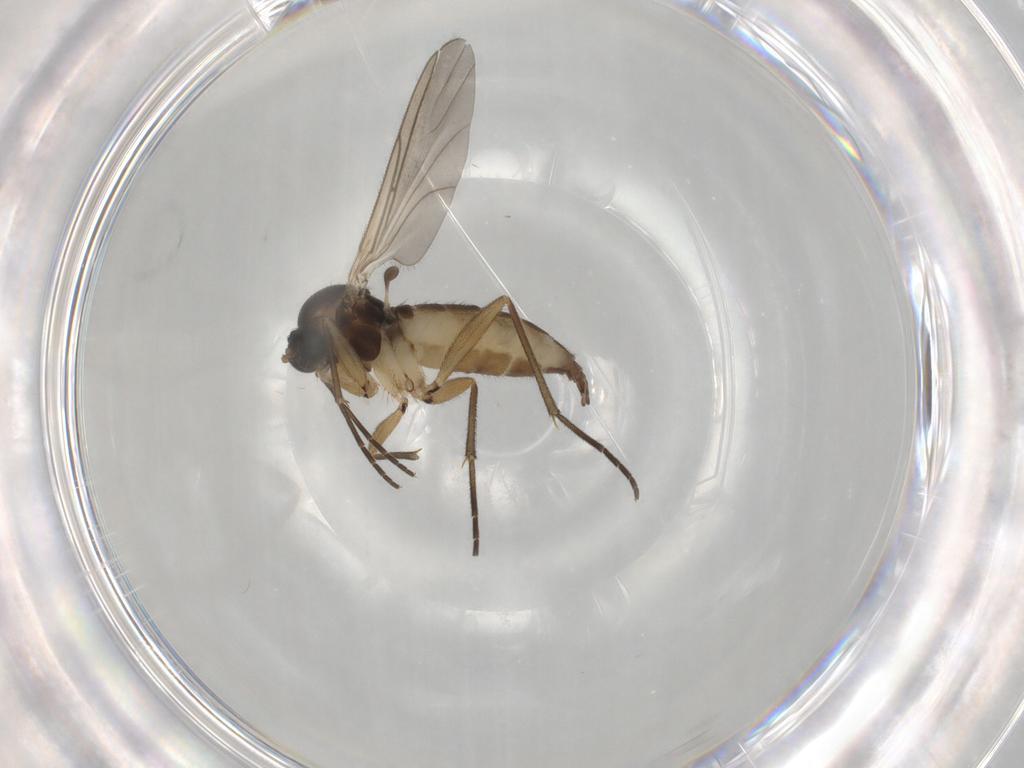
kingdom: Animalia
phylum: Arthropoda
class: Insecta
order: Diptera
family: Sciaridae
